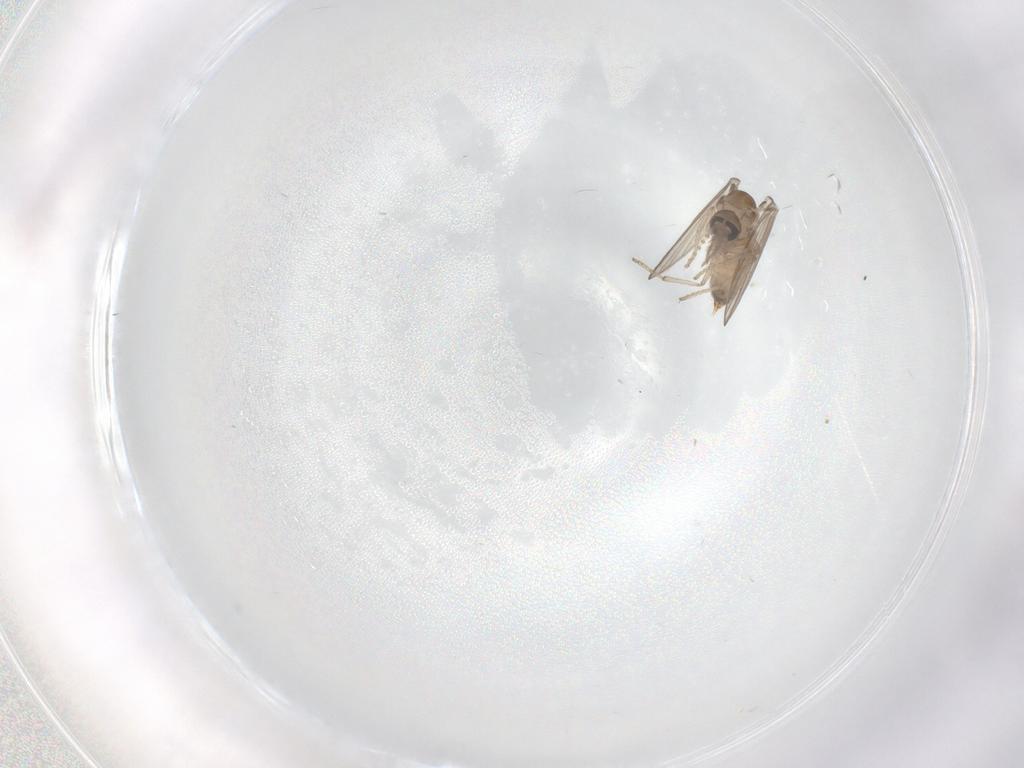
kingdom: Animalia
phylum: Arthropoda
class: Insecta
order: Diptera
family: Psychodidae
